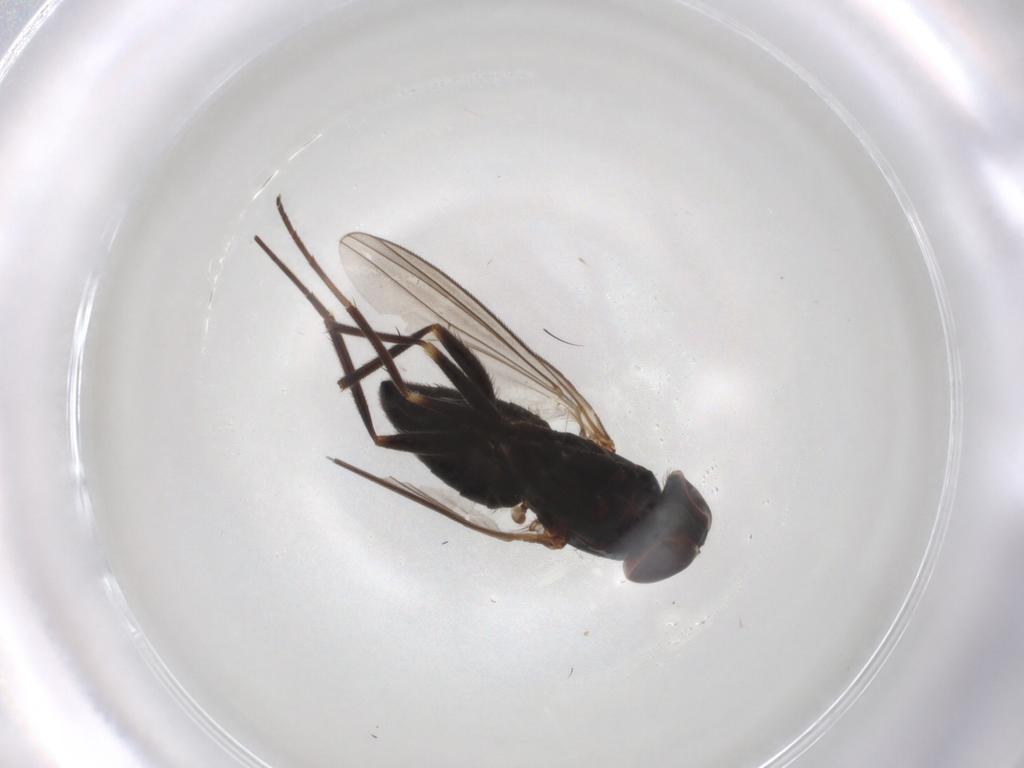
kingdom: Animalia
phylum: Arthropoda
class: Insecta
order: Diptera
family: Dolichopodidae
